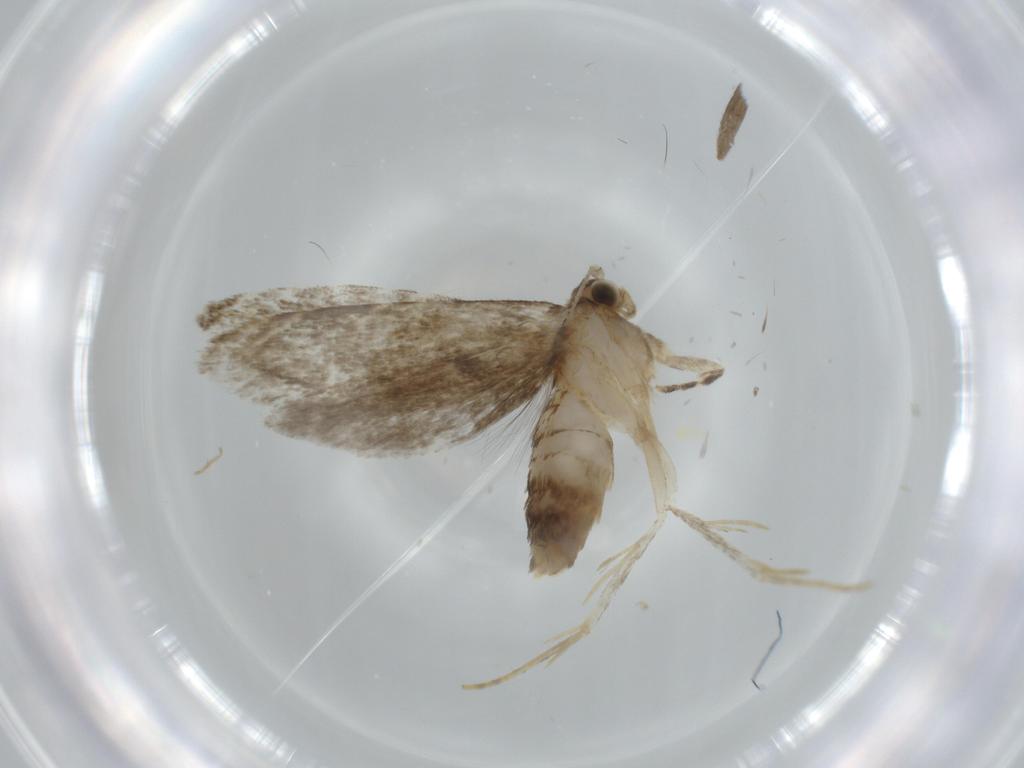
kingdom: Animalia
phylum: Arthropoda
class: Insecta
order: Lepidoptera
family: Tineidae
